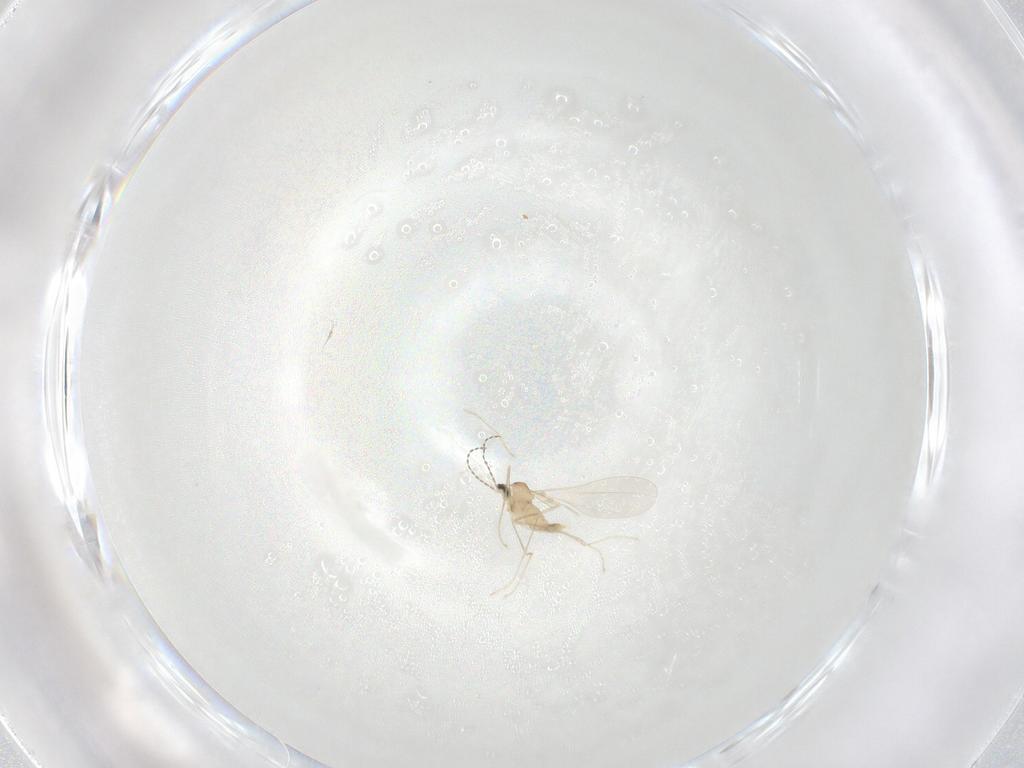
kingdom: Animalia
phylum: Arthropoda
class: Insecta
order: Diptera
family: Cecidomyiidae
